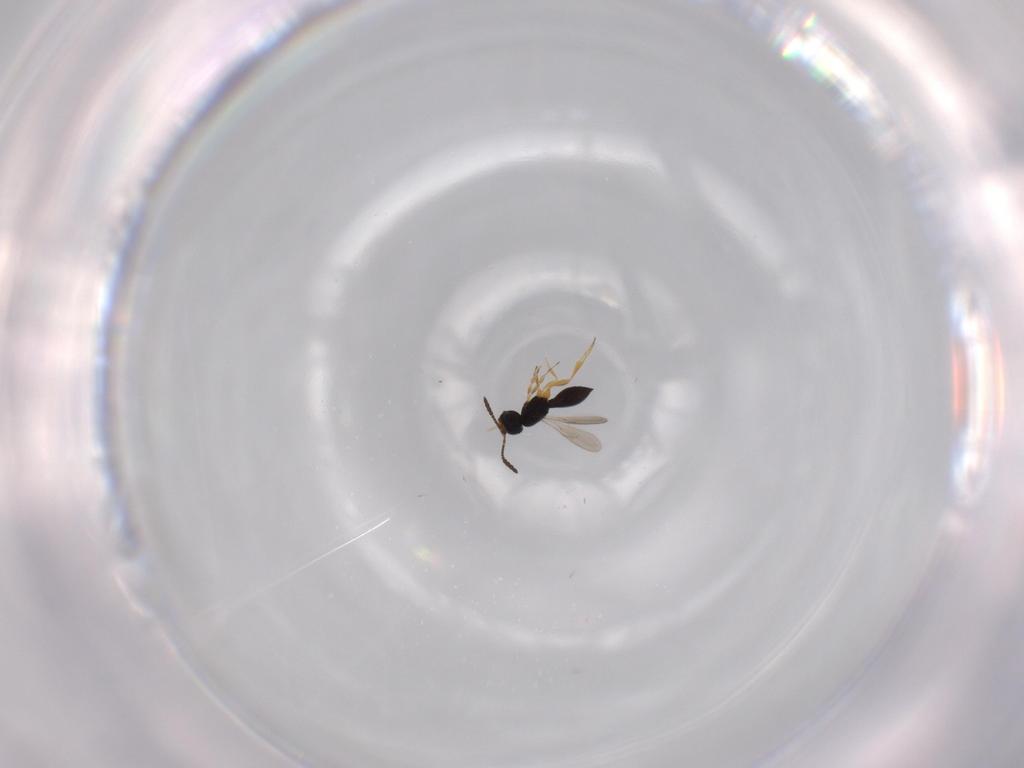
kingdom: Animalia
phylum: Arthropoda
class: Insecta
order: Hymenoptera
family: Scelionidae
